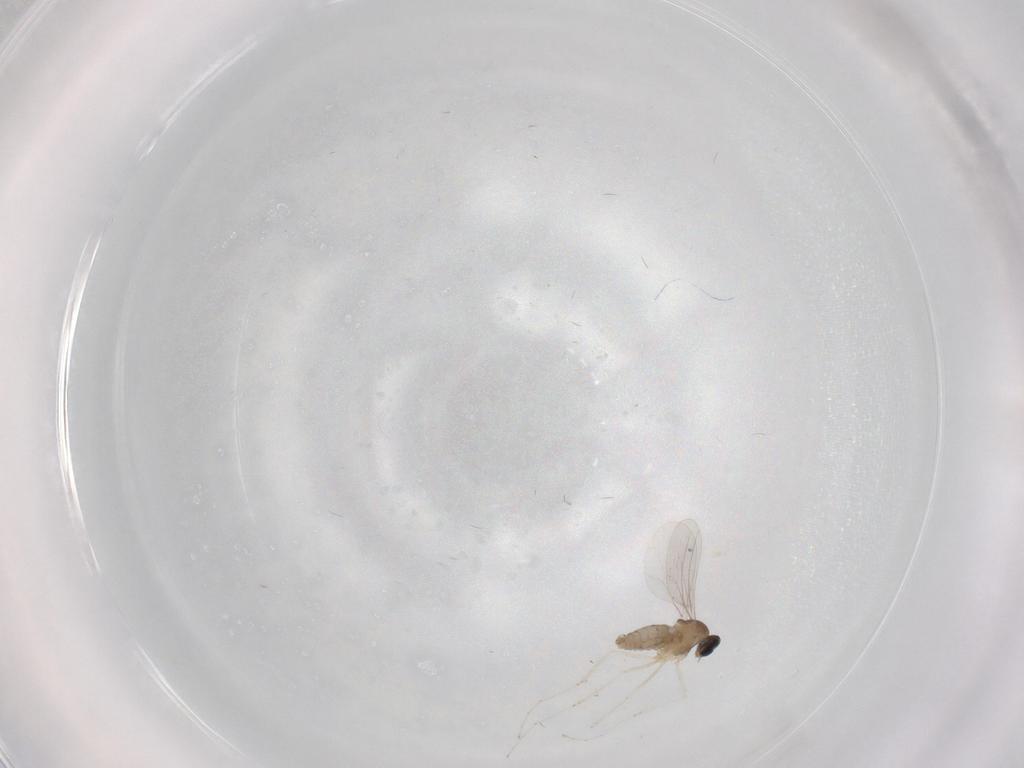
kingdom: Animalia
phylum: Arthropoda
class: Insecta
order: Diptera
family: Cecidomyiidae
